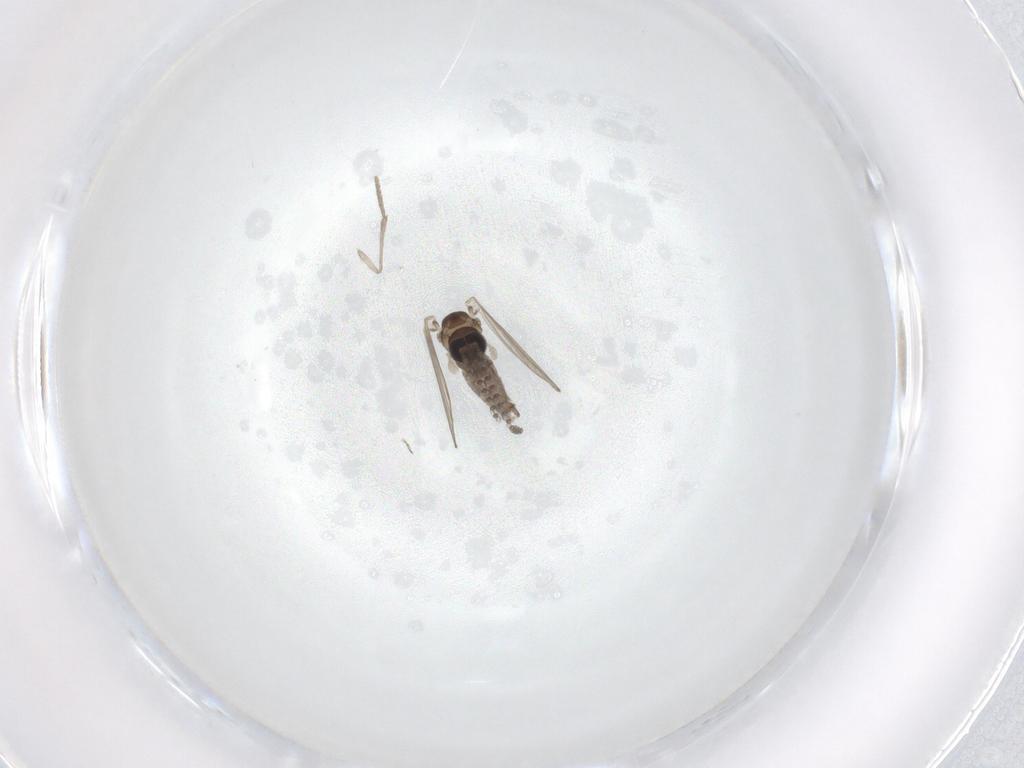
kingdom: Animalia
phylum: Arthropoda
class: Insecta
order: Diptera
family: Psychodidae
